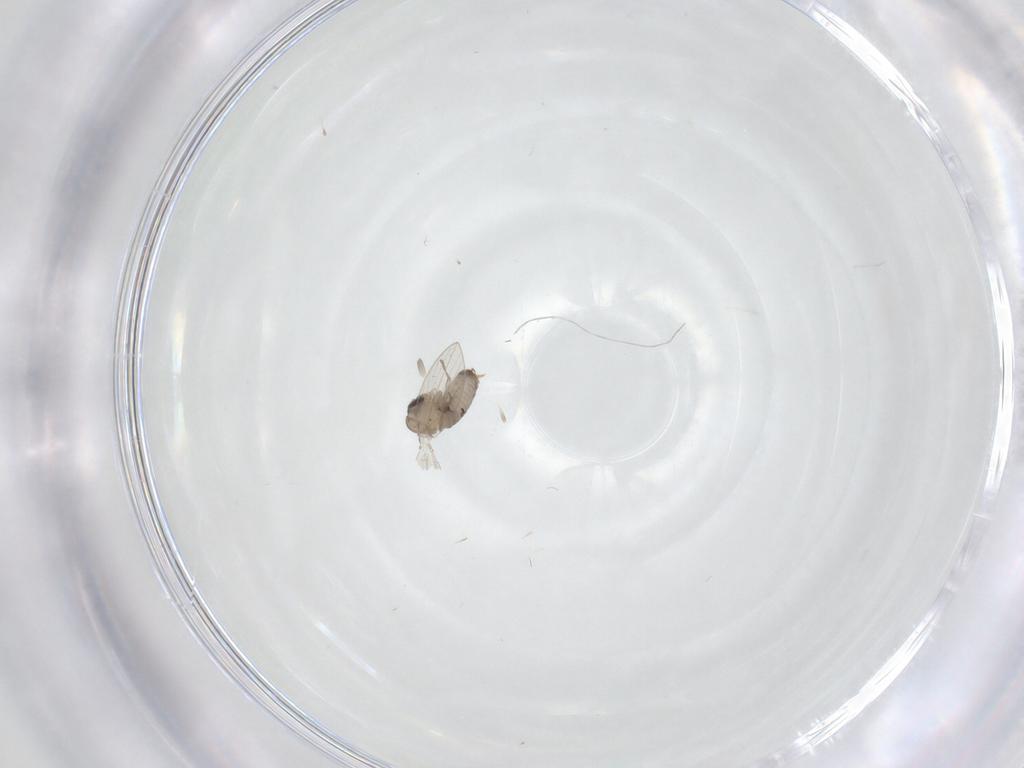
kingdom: Animalia
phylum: Arthropoda
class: Insecta
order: Diptera
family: Psychodidae
